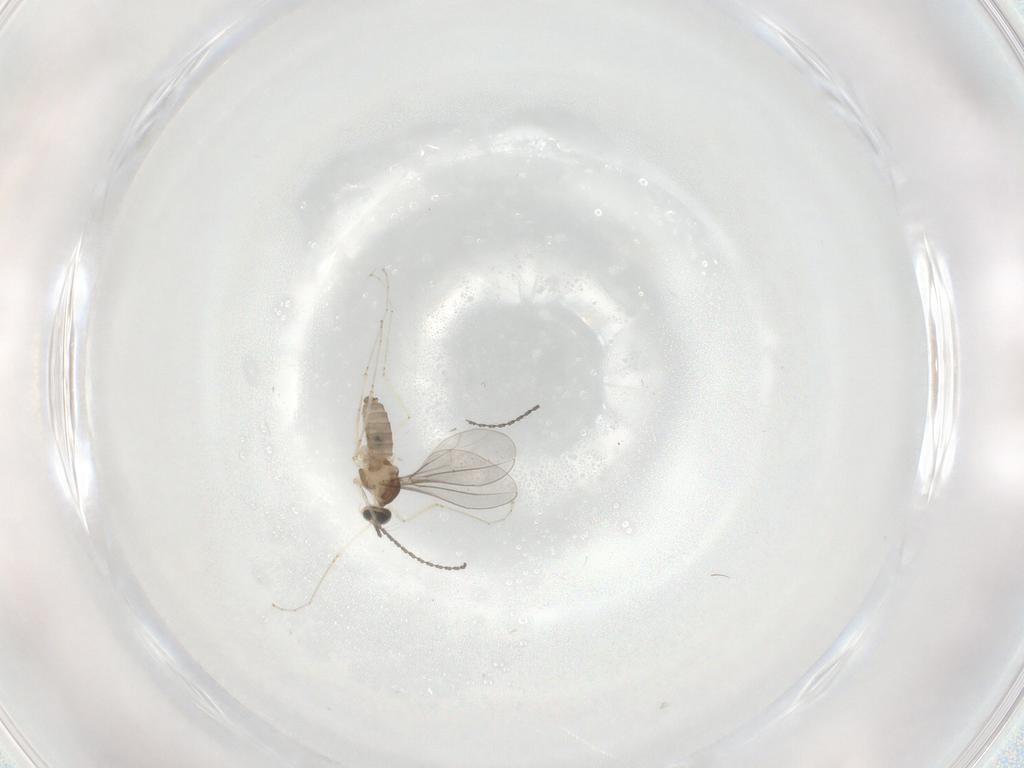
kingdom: Animalia
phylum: Arthropoda
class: Insecta
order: Diptera
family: Cecidomyiidae
